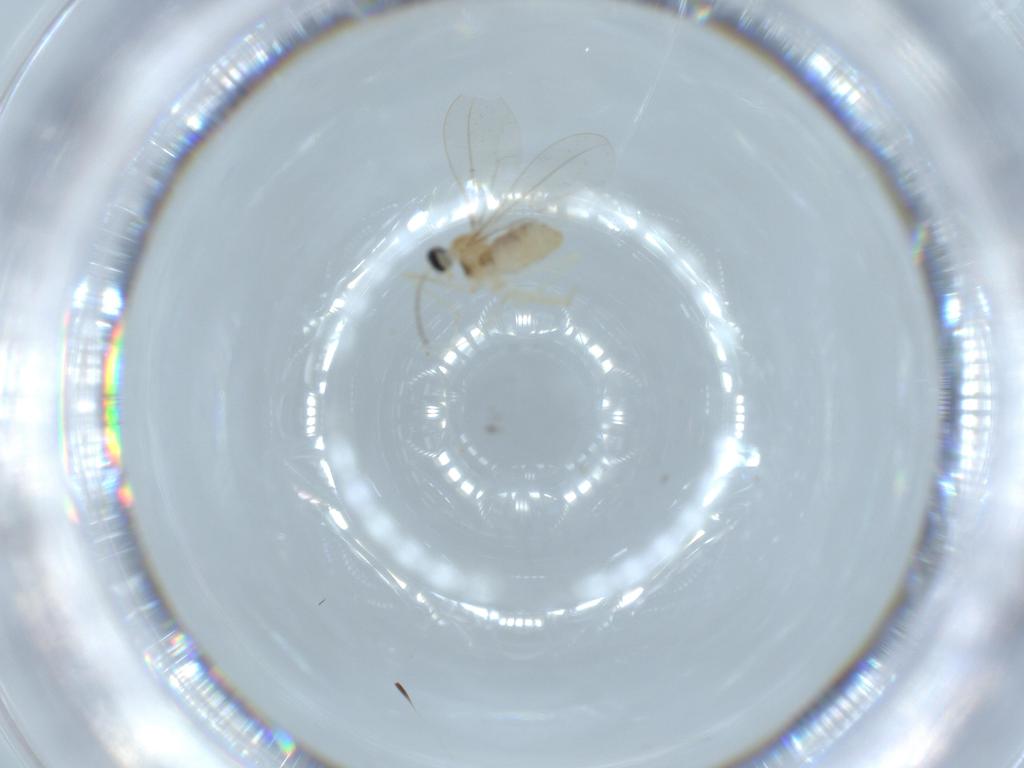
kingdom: Animalia
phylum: Arthropoda
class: Insecta
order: Diptera
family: Cecidomyiidae
